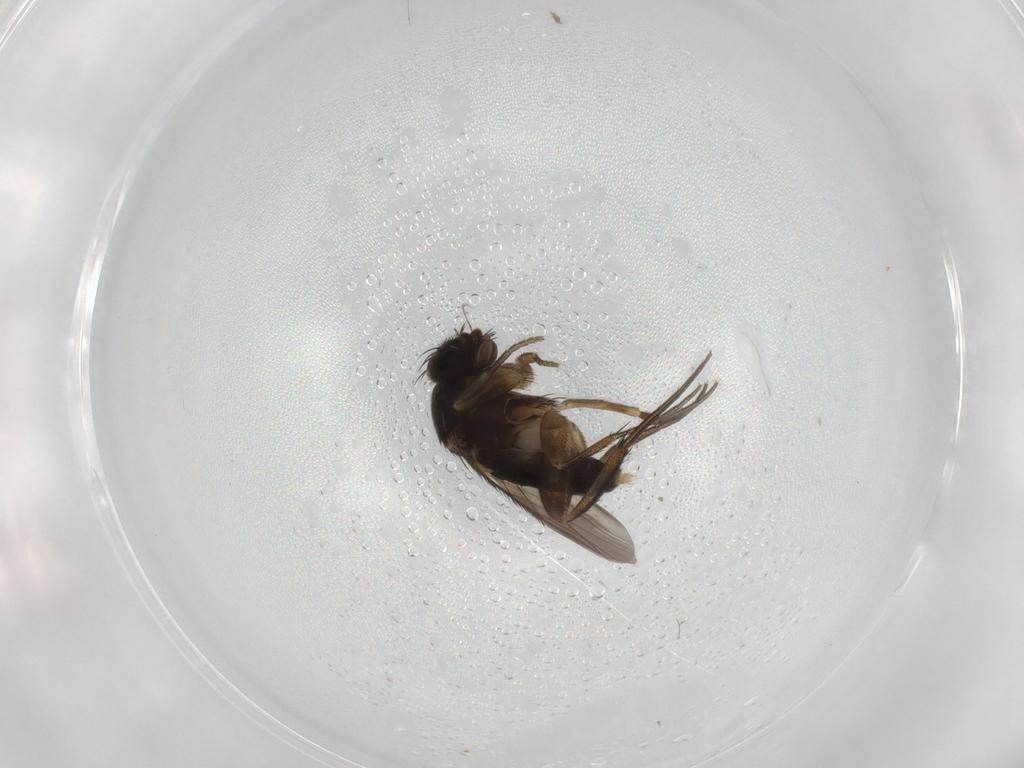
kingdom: Animalia
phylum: Arthropoda
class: Insecta
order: Diptera
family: Phoridae
